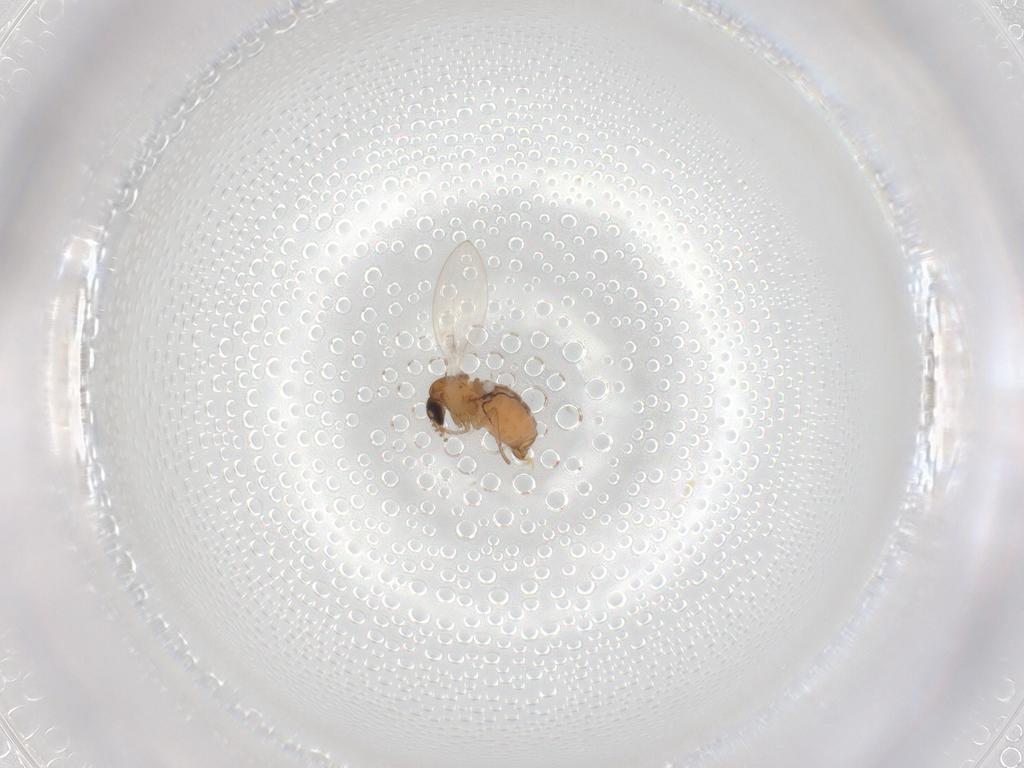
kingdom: Animalia
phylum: Arthropoda
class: Insecta
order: Diptera
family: Psychodidae
